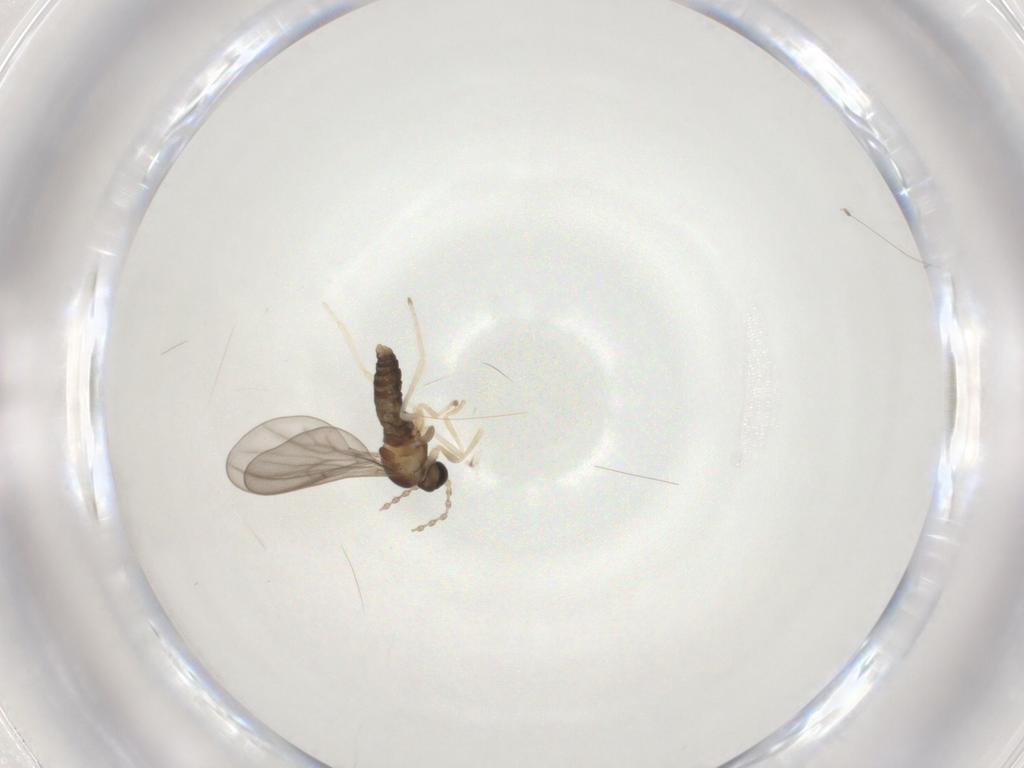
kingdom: Animalia
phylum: Arthropoda
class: Insecta
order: Diptera
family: Cecidomyiidae
